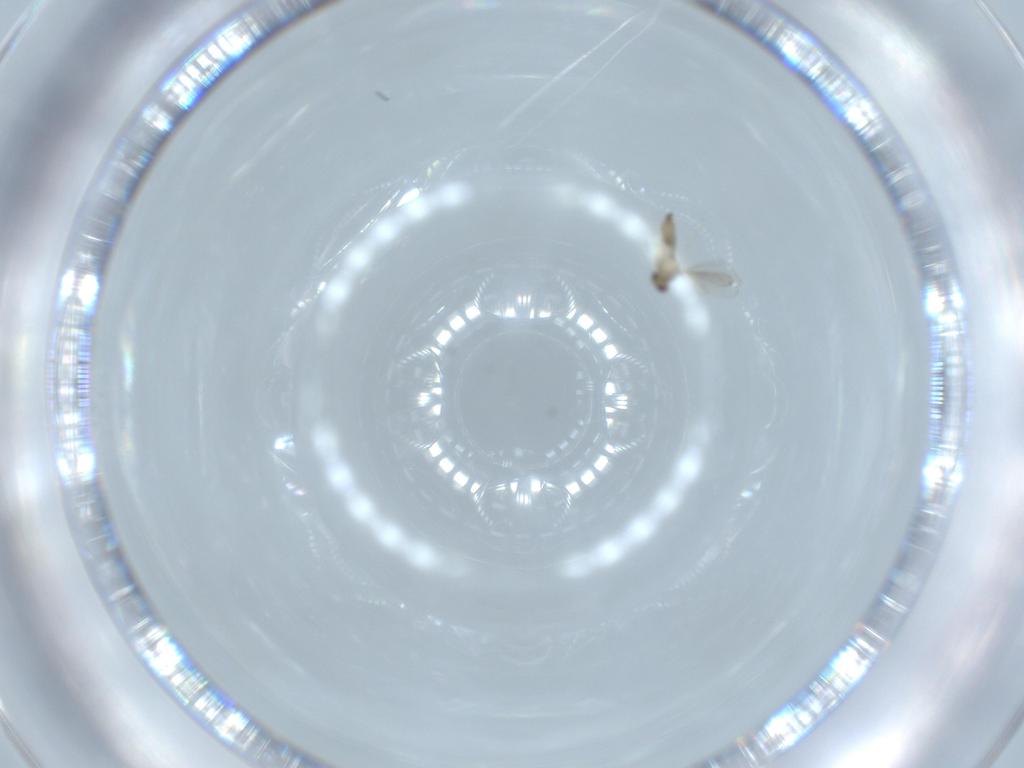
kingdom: Animalia
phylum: Arthropoda
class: Insecta
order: Diptera
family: Cecidomyiidae
